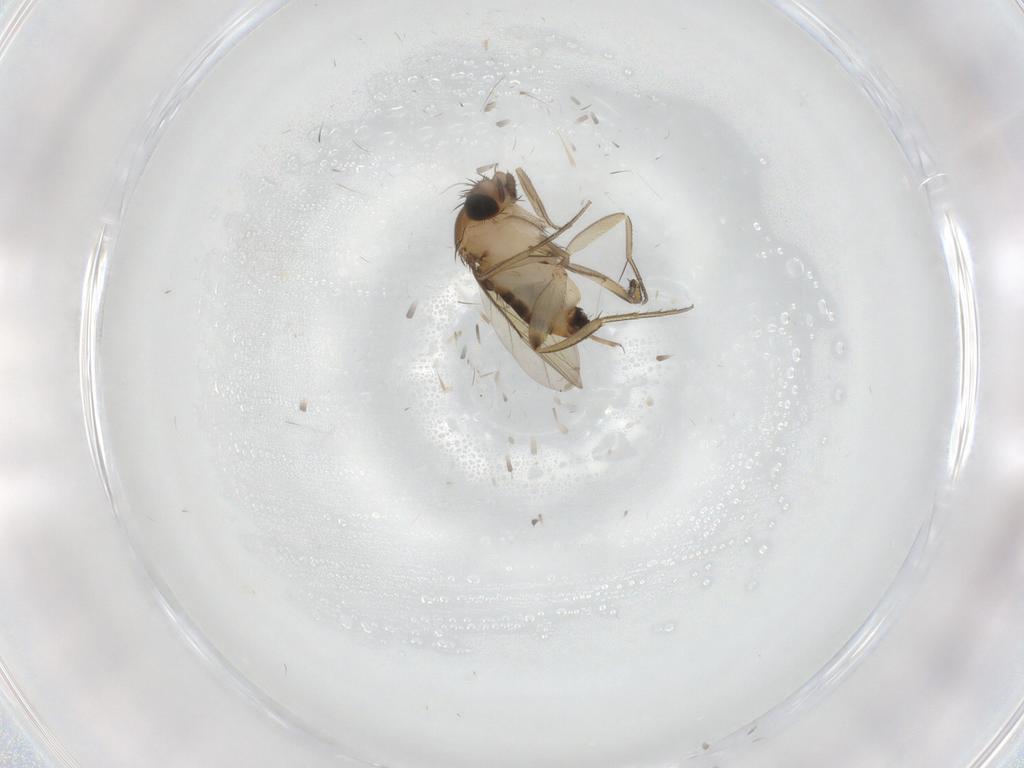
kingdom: Animalia
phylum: Arthropoda
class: Insecta
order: Diptera
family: Phoridae
